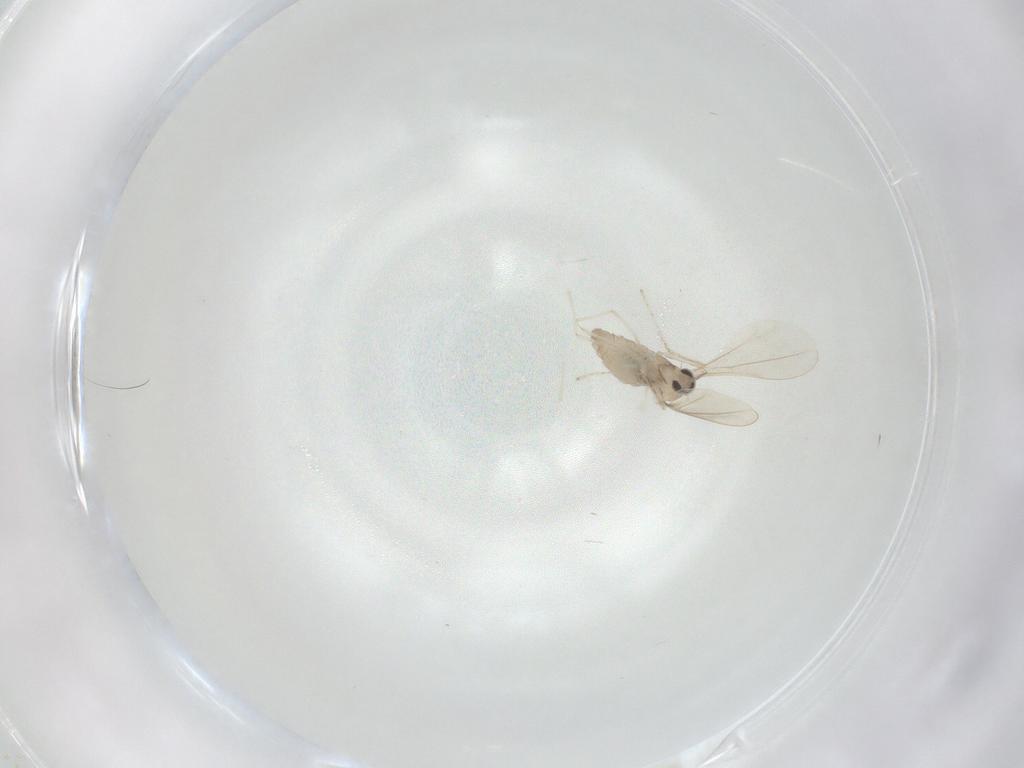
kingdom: Animalia
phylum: Arthropoda
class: Insecta
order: Diptera
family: Cecidomyiidae
